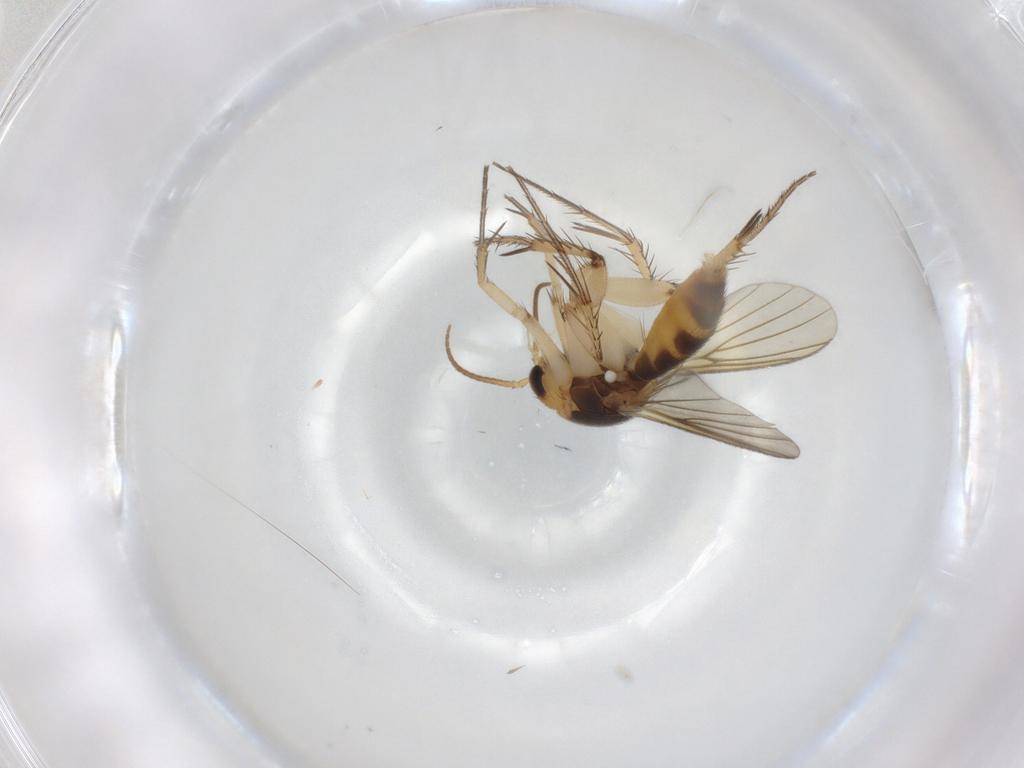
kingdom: Animalia
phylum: Arthropoda
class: Insecta
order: Diptera
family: Mycetophilidae
